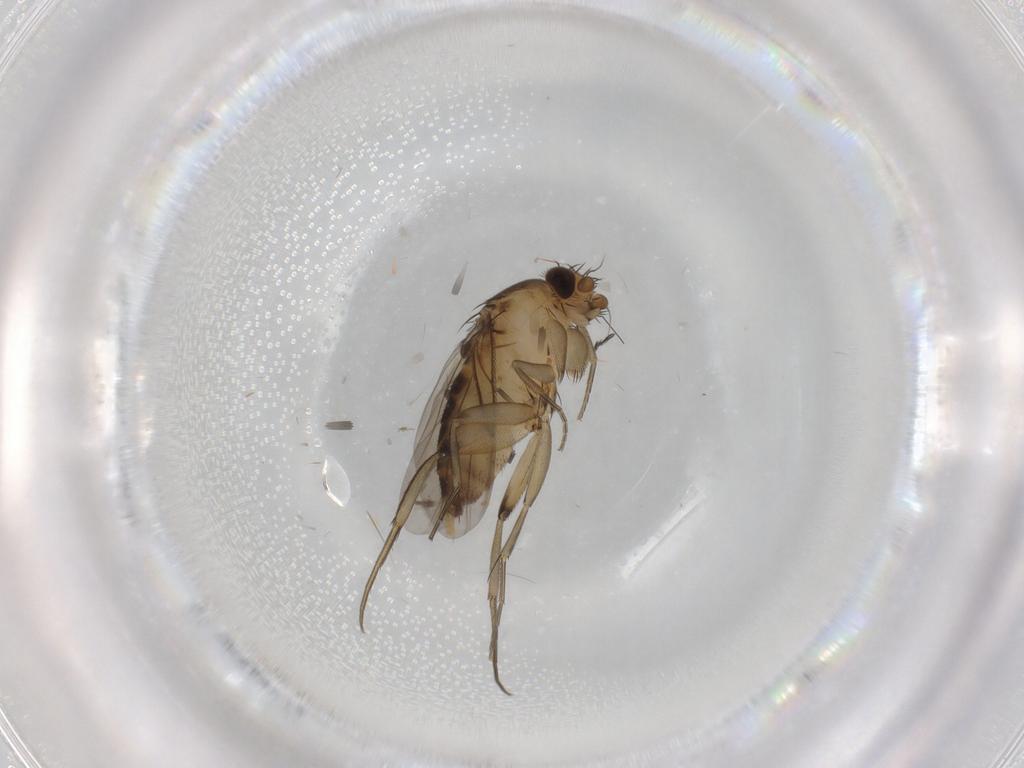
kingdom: Animalia
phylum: Arthropoda
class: Insecta
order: Diptera
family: Phoridae
